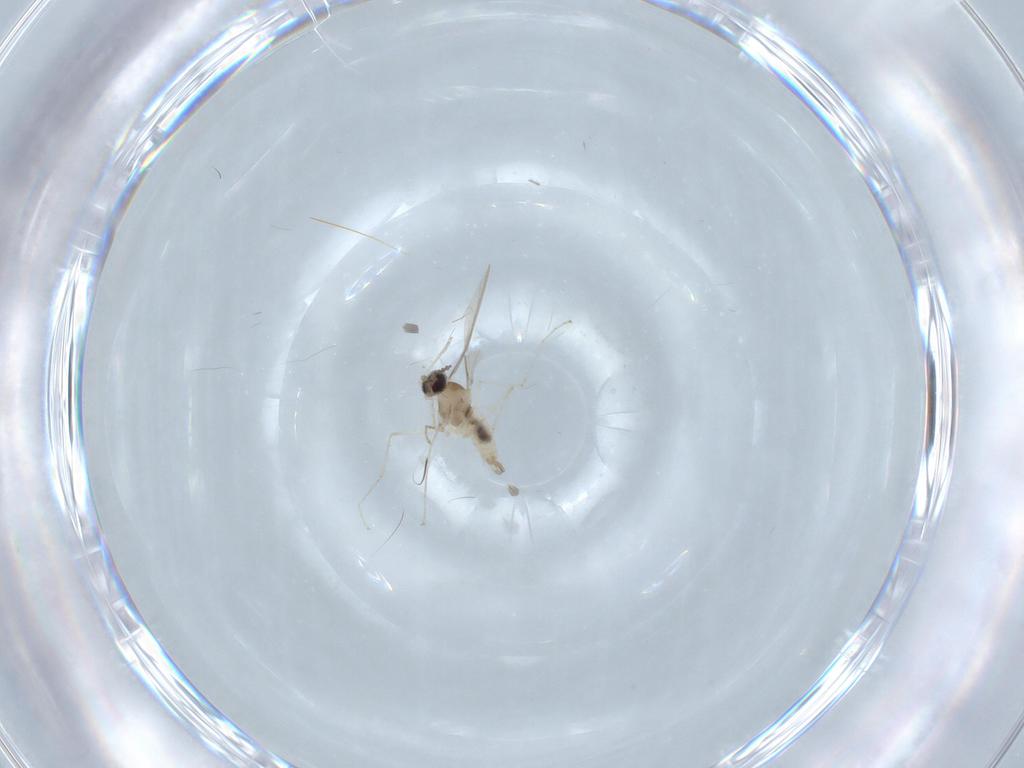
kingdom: Animalia
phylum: Arthropoda
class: Insecta
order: Diptera
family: Cecidomyiidae
